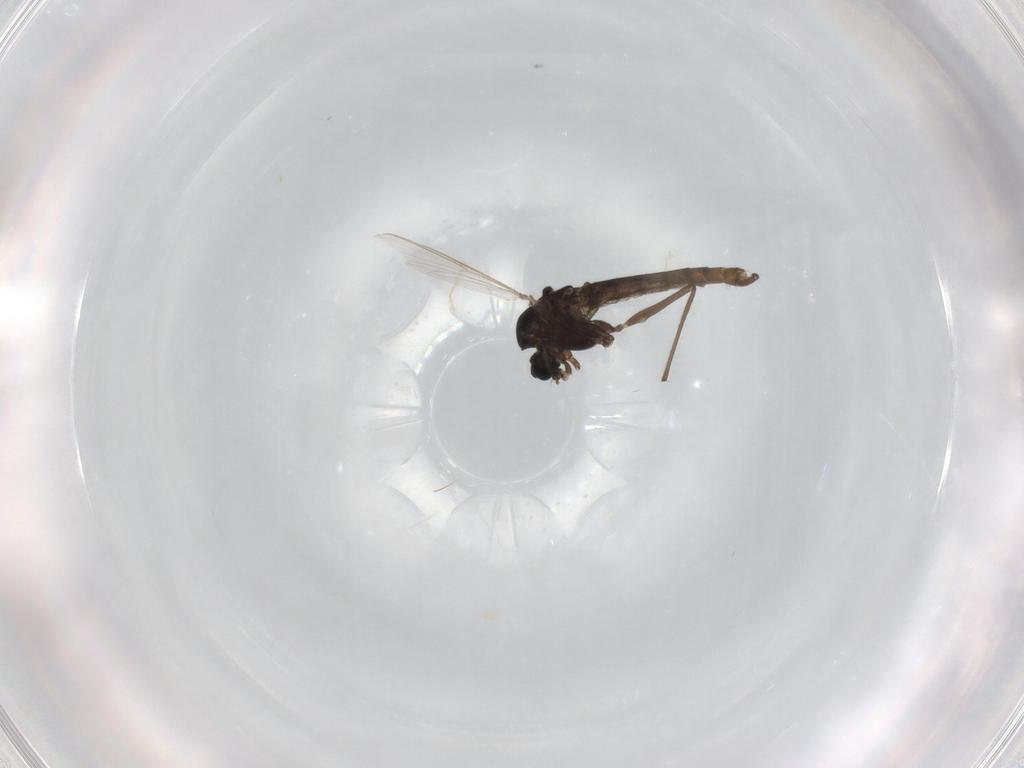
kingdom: Animalia
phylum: Arthropoda
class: Insecta
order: Diptera
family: Chironomidae
